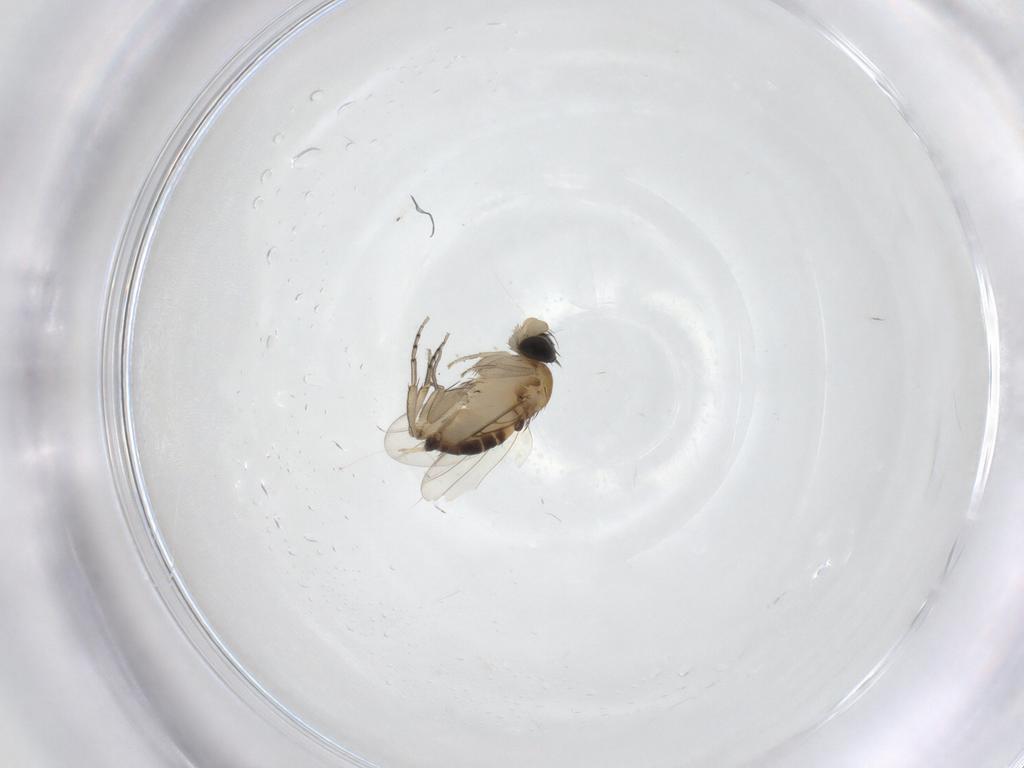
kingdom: Animalia
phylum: Arthropoda
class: Insecta
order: Diptera
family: Phoridae
